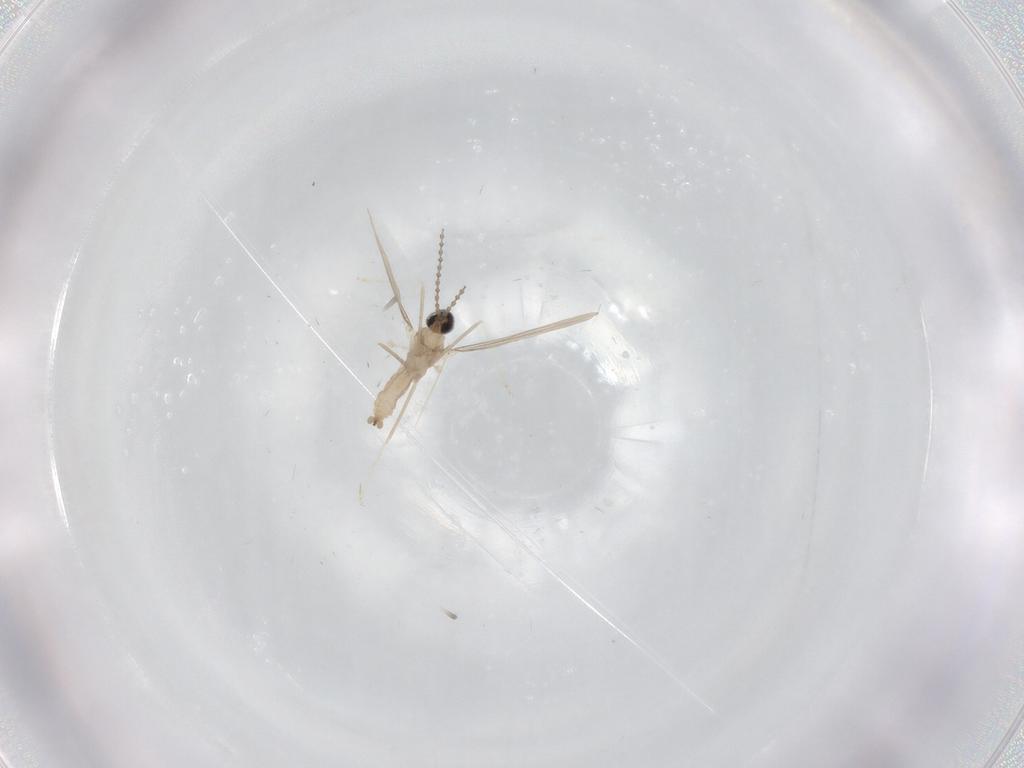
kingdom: Animalia
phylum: Arthropoda
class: Insecta
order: Diptera
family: Cecidomyiidae
